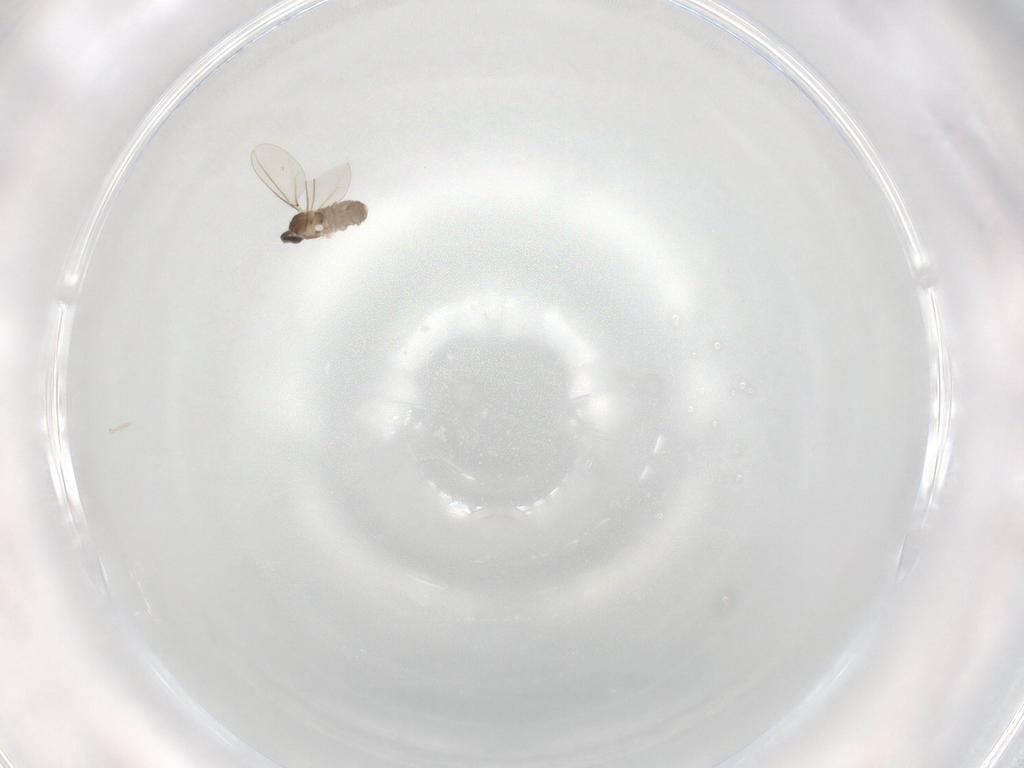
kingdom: Animalia
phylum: Arthropoda
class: Insecta
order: Diptera
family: Cecidomyiidae
